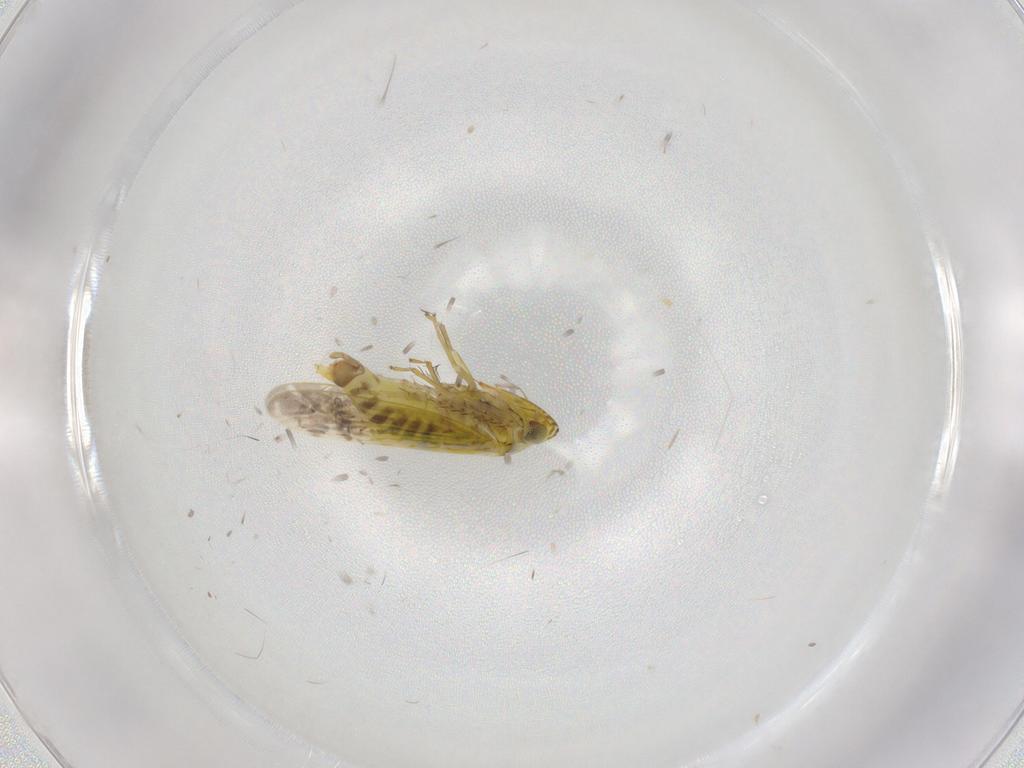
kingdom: Animalia
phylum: Arthropoda
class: Insecta
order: Hemiptera
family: Cicadellidae
